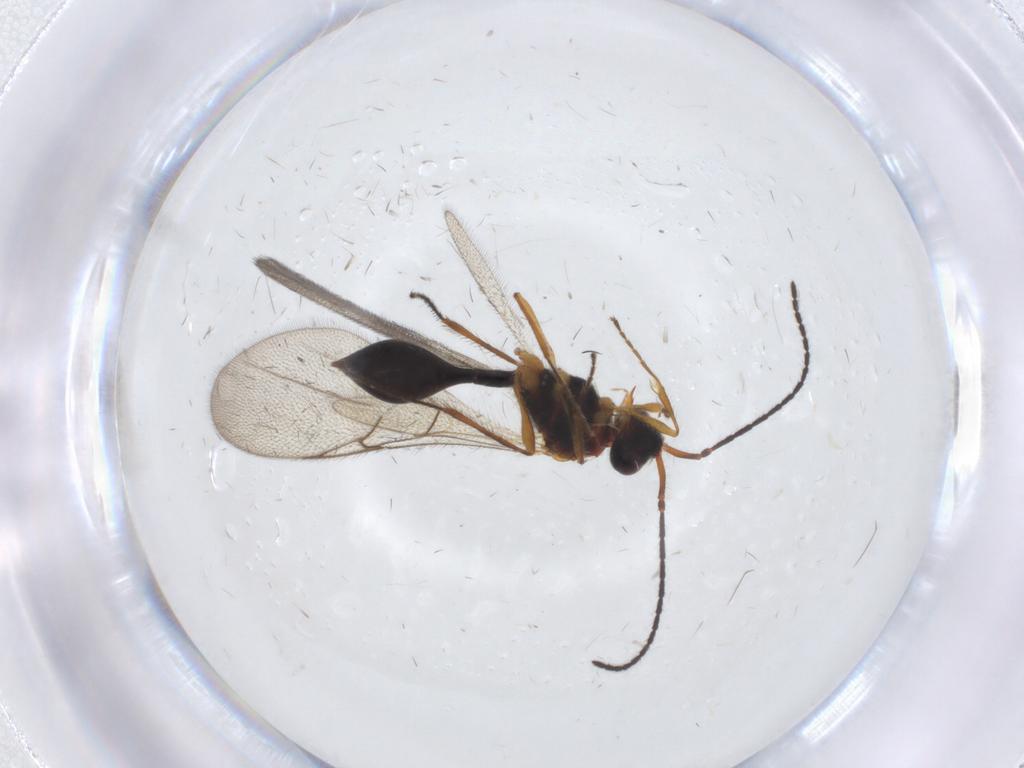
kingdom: Animalia
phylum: Arthropoda
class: Insecta
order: Hymenoptera
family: Diapriidae
